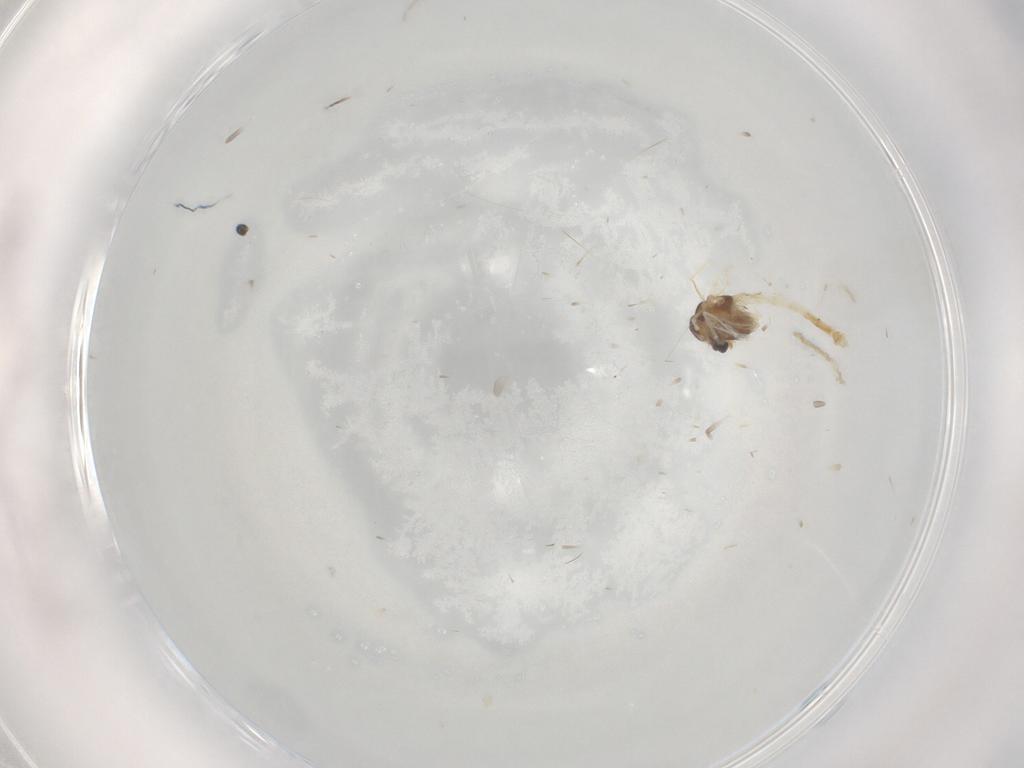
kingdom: Animalia
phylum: Arthropoda
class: Insecta
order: Diptera
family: Chironomidae
